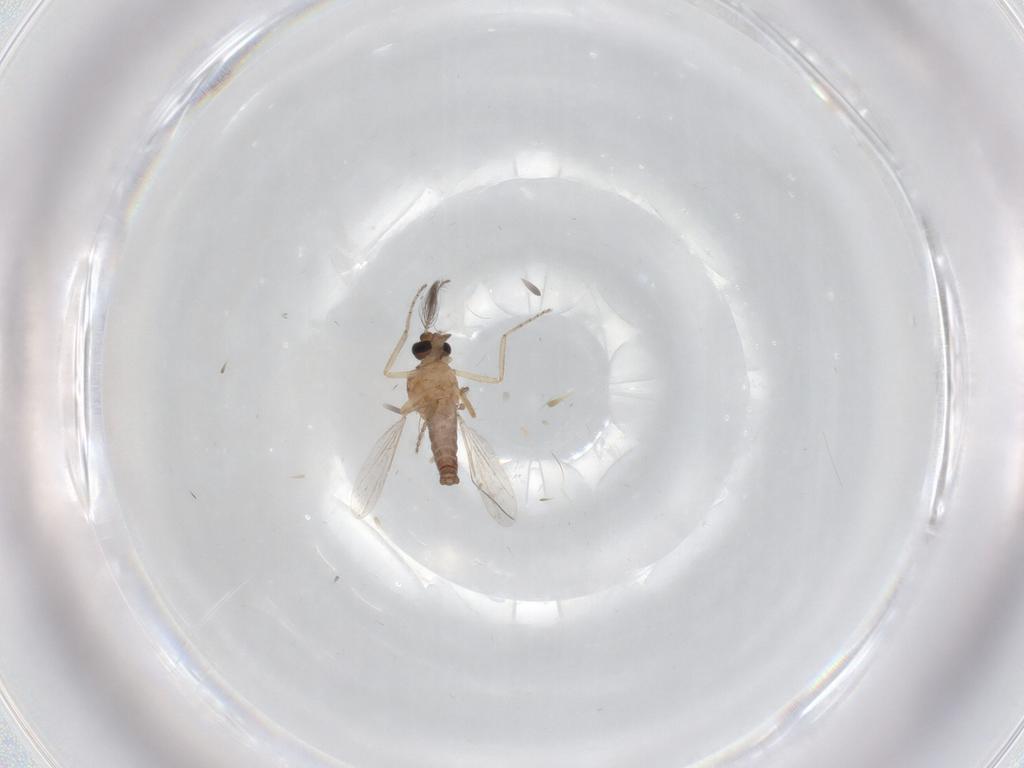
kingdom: Animalia
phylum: Arthropoda
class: Insecta
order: Diptera
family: Ceratopogonidae
